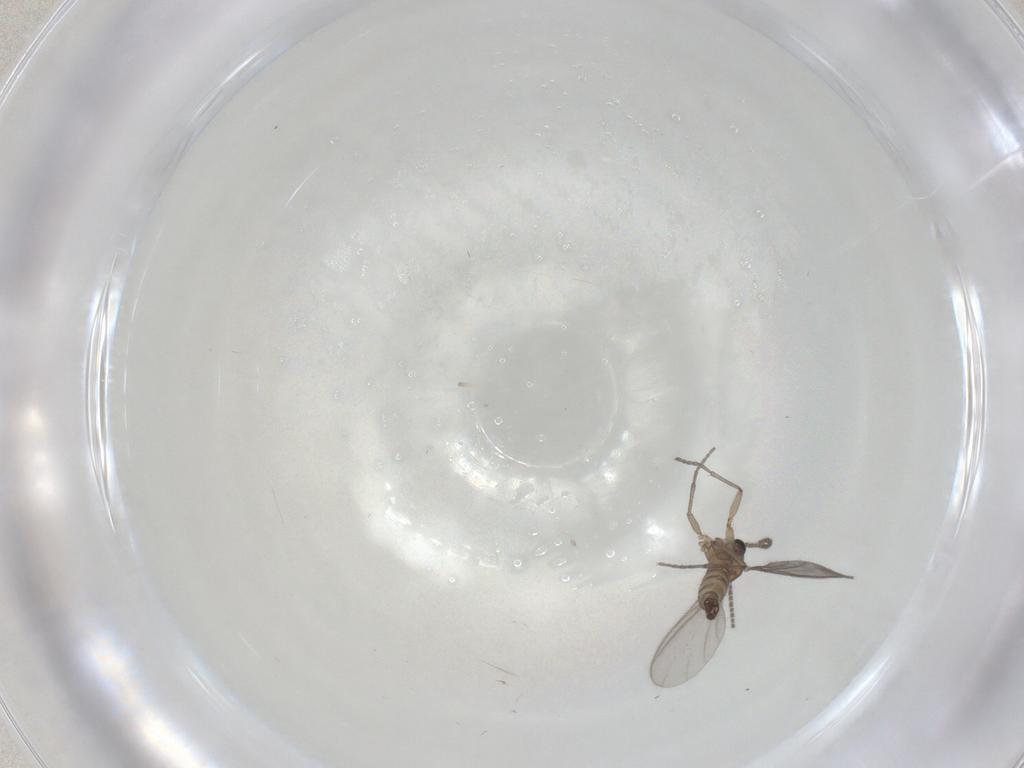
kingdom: Animalia
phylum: Arthropoda
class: Insecta
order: Diptera
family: Sciaridae
